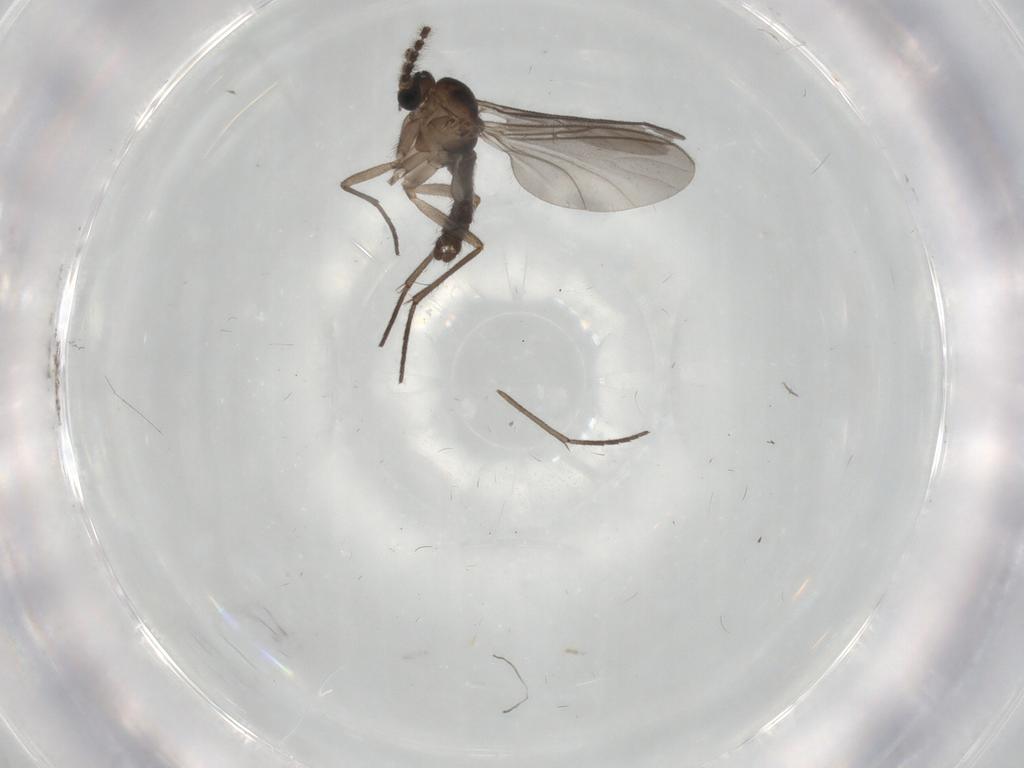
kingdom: Animalia
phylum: Arthropoda
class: Insecta
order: Diptera
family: Sciaridae
